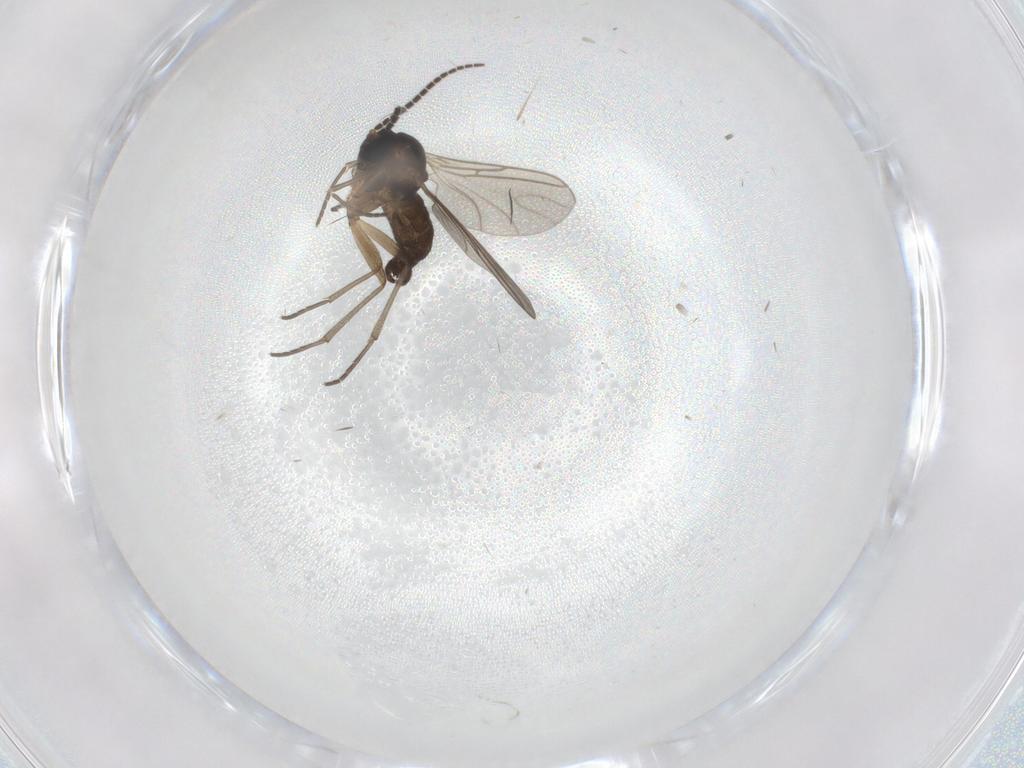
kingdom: Animalia
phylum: Arthropoda
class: Insecta
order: Diptera
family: Sciaridae
